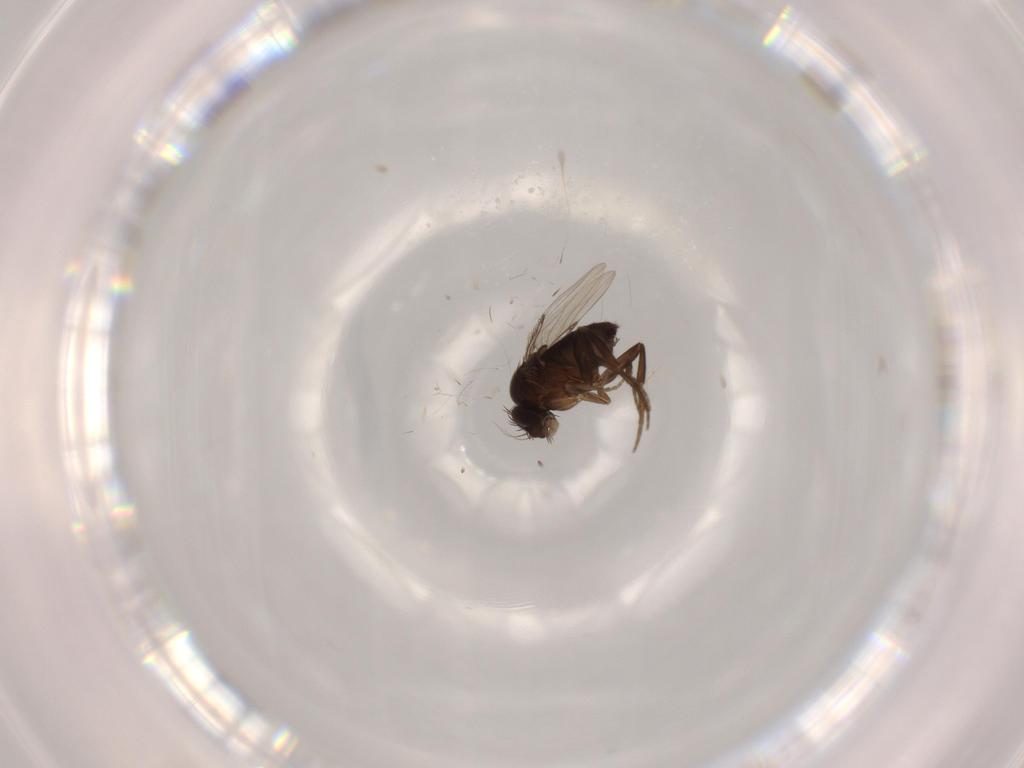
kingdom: Animalia
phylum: Arthropoda
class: Insecta
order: Diptera
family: Phoridae
